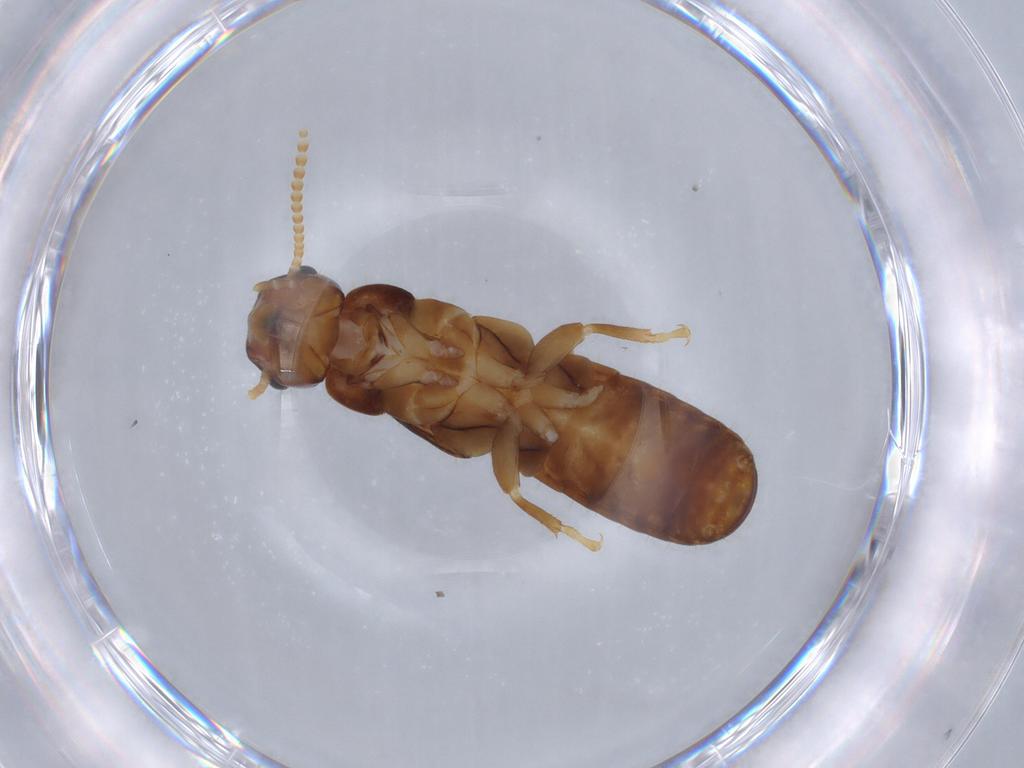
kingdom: Animalia
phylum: Arthropoda
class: Insecta
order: Blattodea
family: Kalotermitidae
